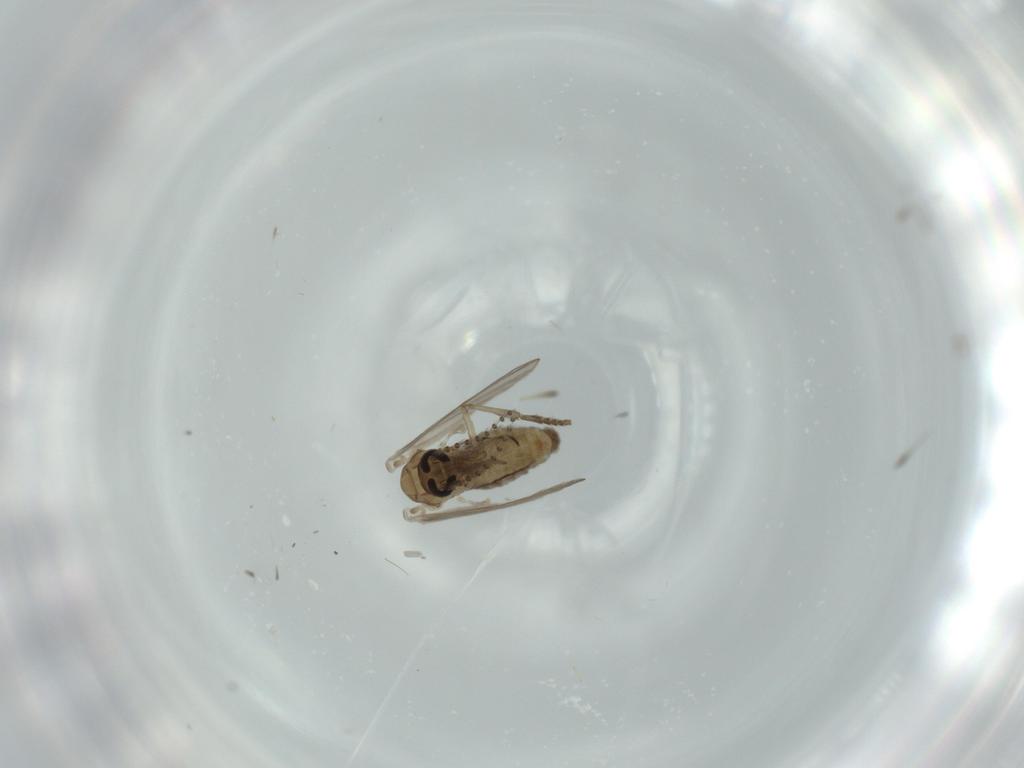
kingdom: Animalia
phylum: Arthropoda
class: Insecta
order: Diptera
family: Psychodidae
